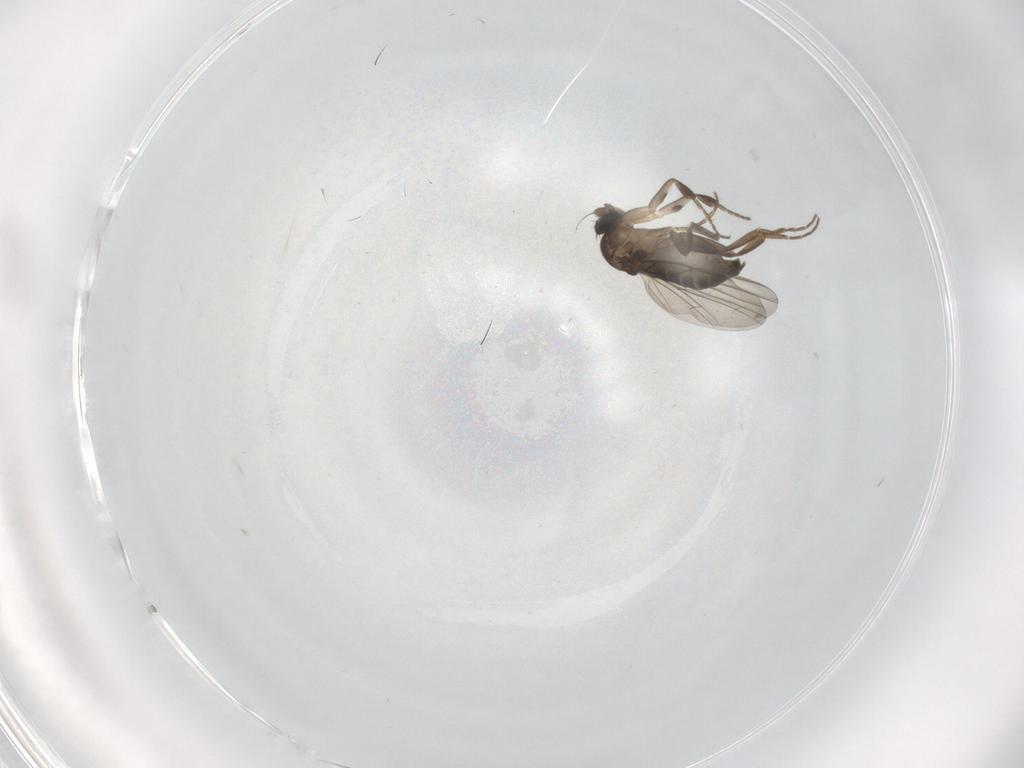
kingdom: Animalia
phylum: Arthropoda
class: Insecta
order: Diptera
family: Phoridae
